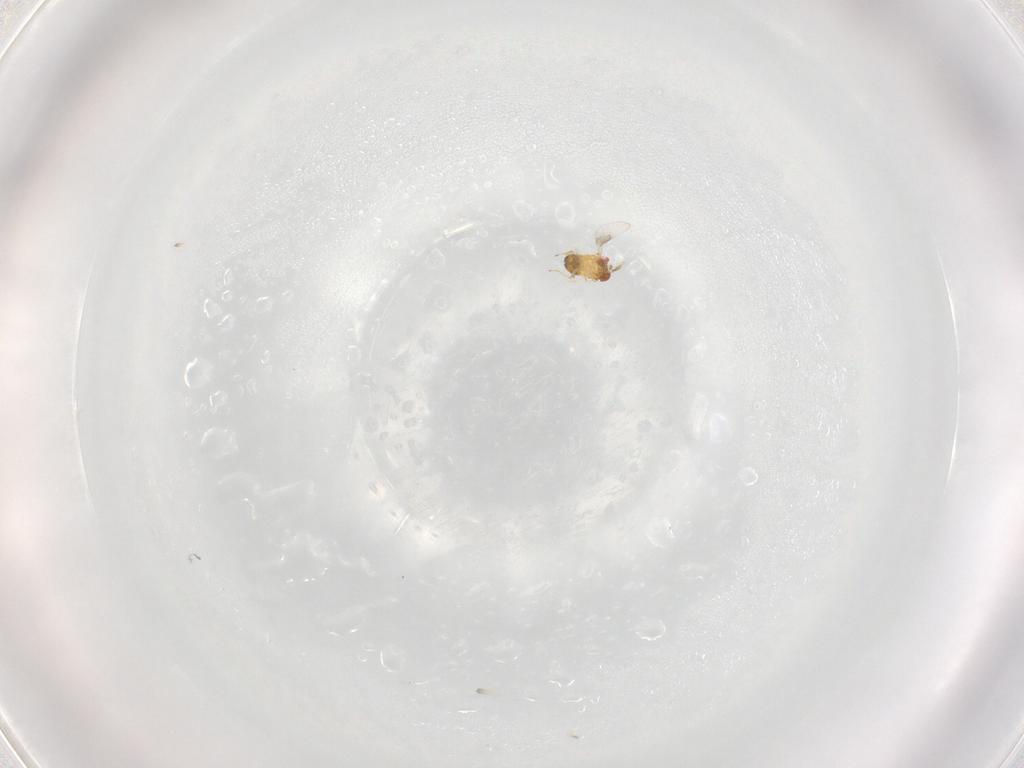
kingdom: Animalia
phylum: Arthropoda
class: Insecta
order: Hymenoptera
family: Trichogrammatidae
